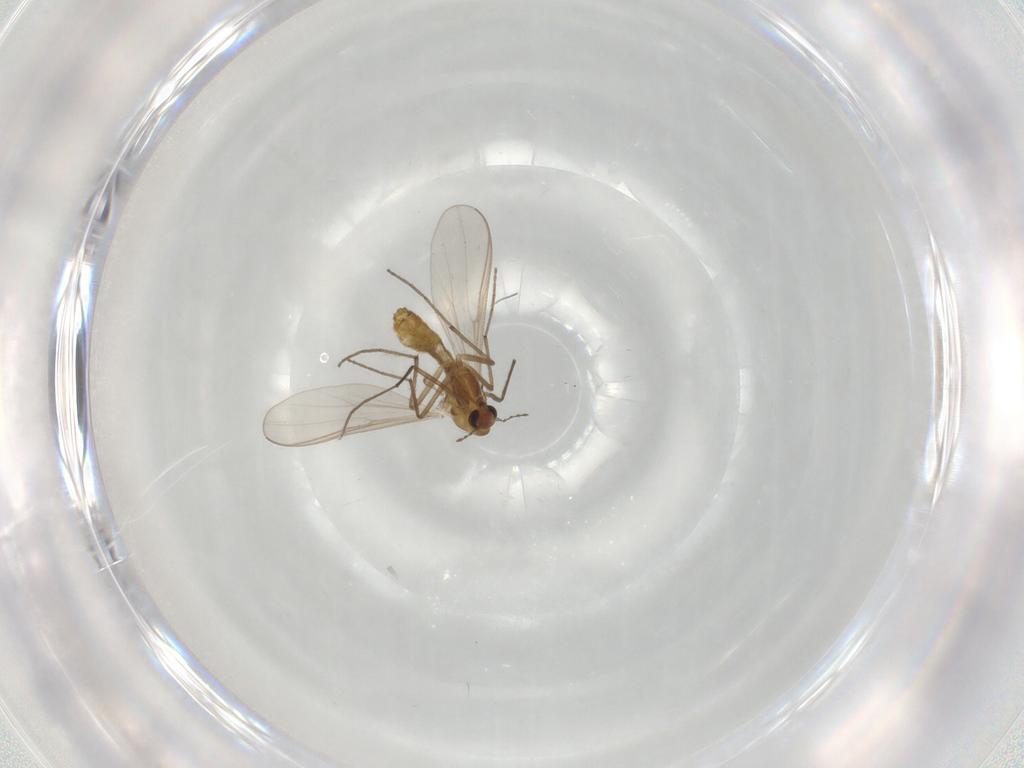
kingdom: Animalia
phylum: Arthropoda
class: Insecta
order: Diptera
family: Chironomidae
